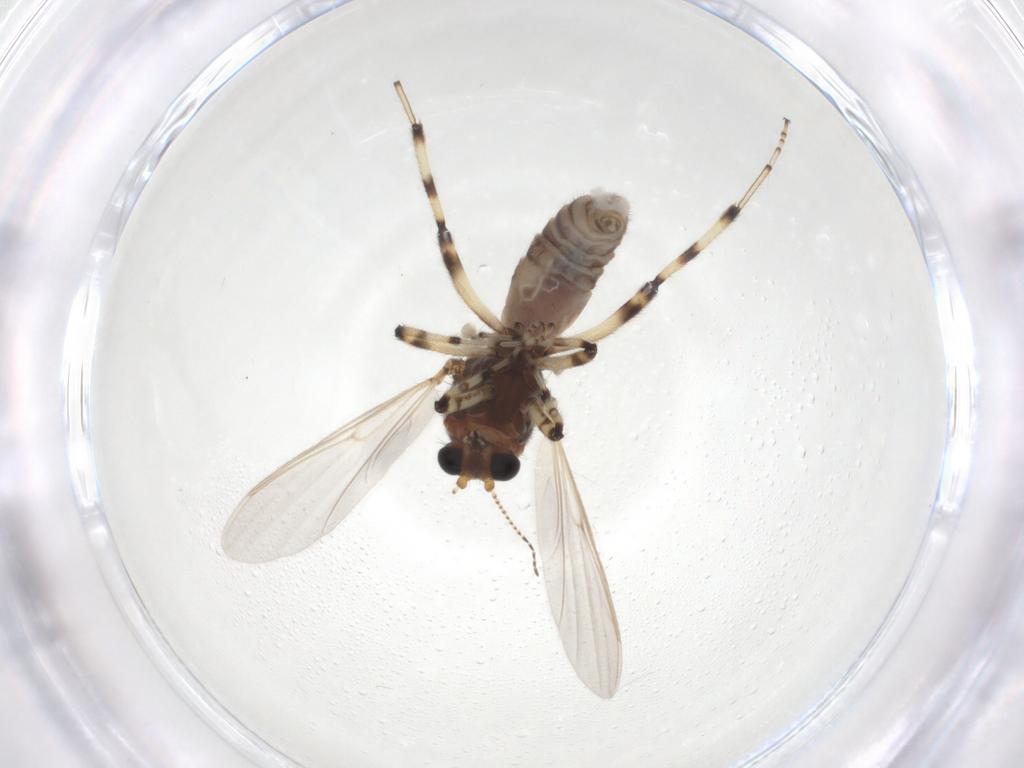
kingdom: Animalia
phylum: Arthropoda
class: Insecta
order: Diptera
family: Ceratopogonidae
